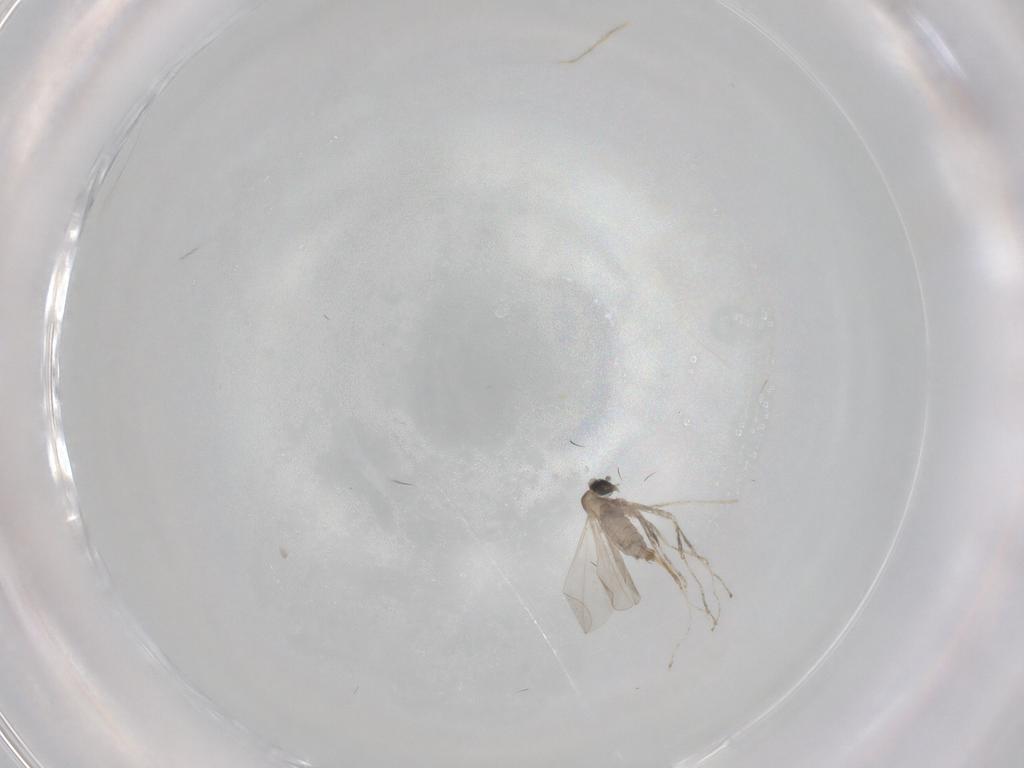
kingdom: Animalia
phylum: Arthropoda
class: Insecta
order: Diptera
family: Cecidomyiidae
